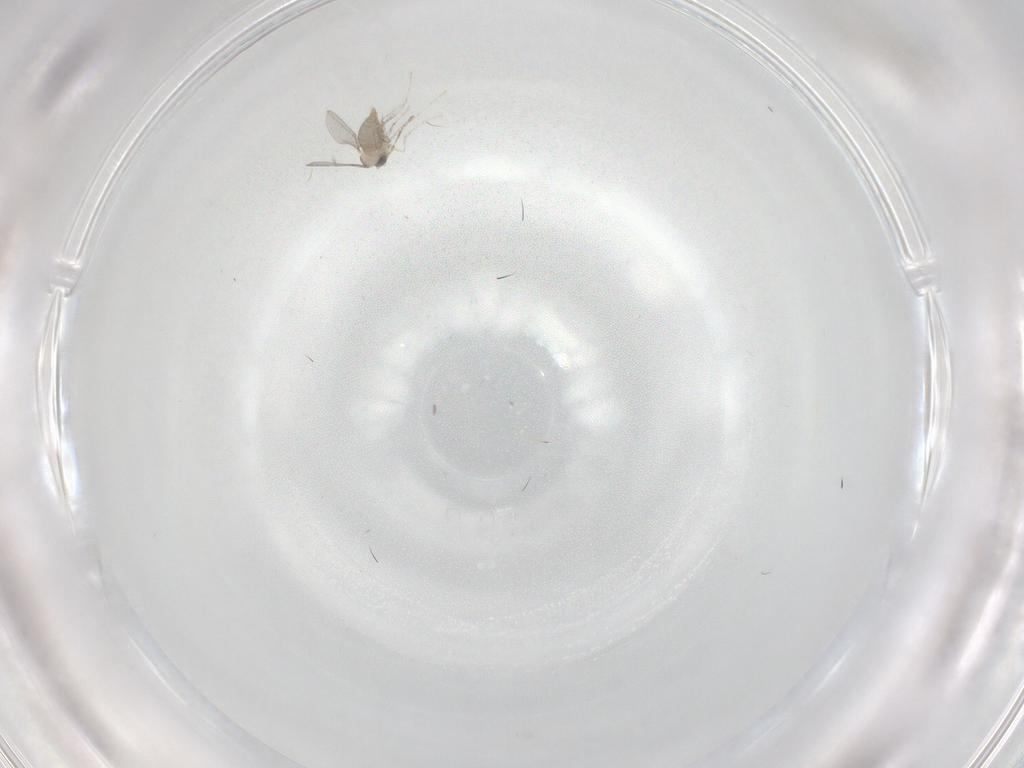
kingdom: Animalia
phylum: Arthropoda
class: Insecta
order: Diptera
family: Cecidomyiidae
